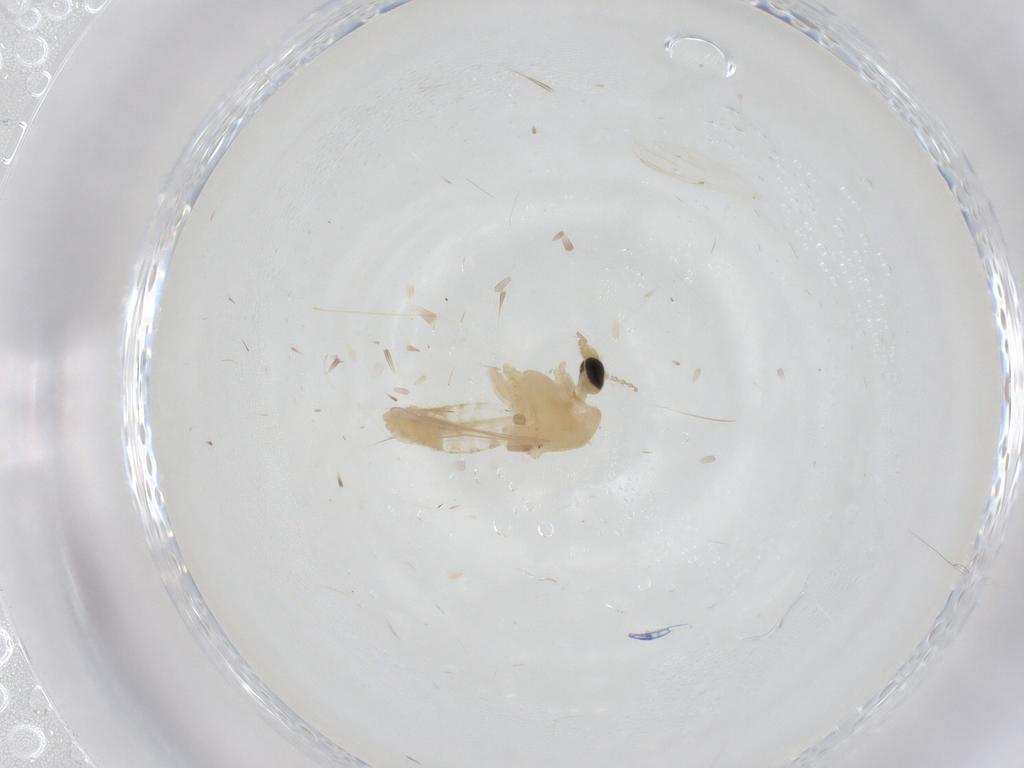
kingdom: Animalia
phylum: Arthropoda
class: Insecta
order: Diptera
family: Cecidomyiidae
